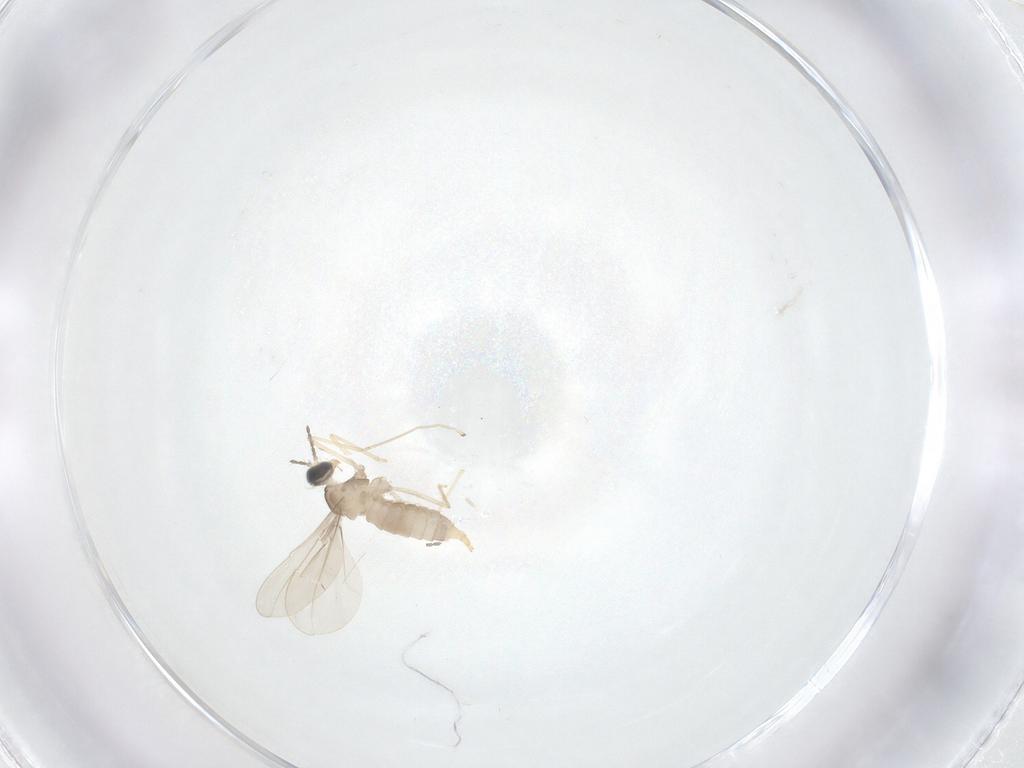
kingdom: Animalia
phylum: Arthropoda
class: Insecta
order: Diptera
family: Cecidomyiidae
